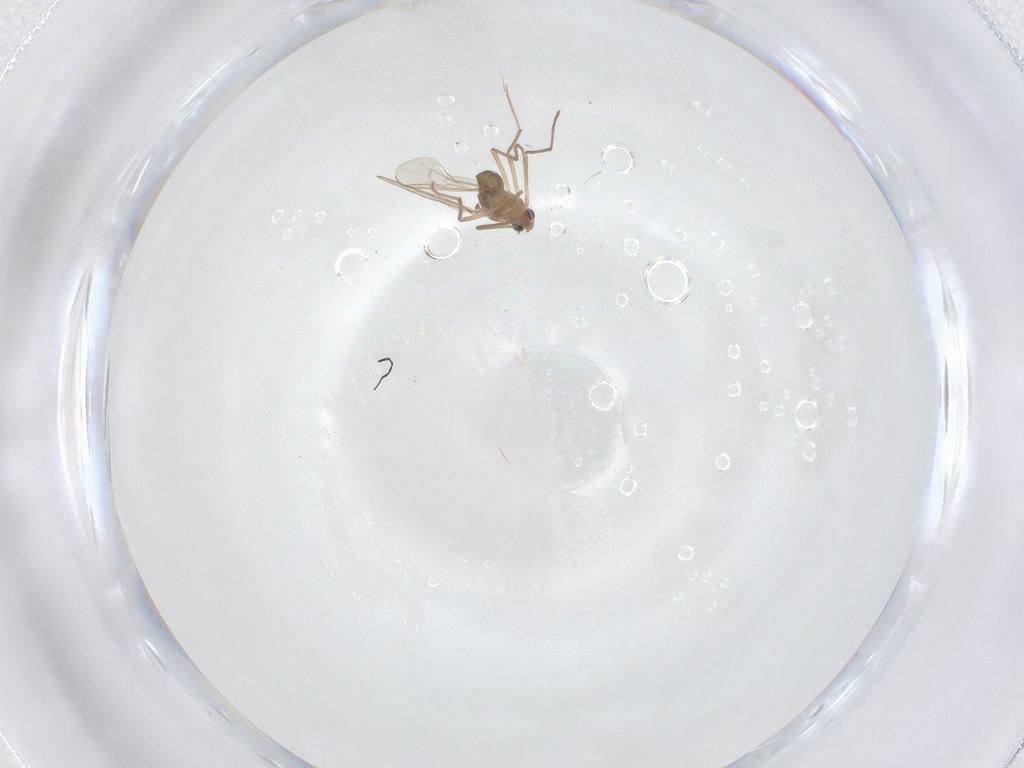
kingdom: Animalia
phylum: Arthropoda
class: Insecta
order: Diptera
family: Chironomidae
